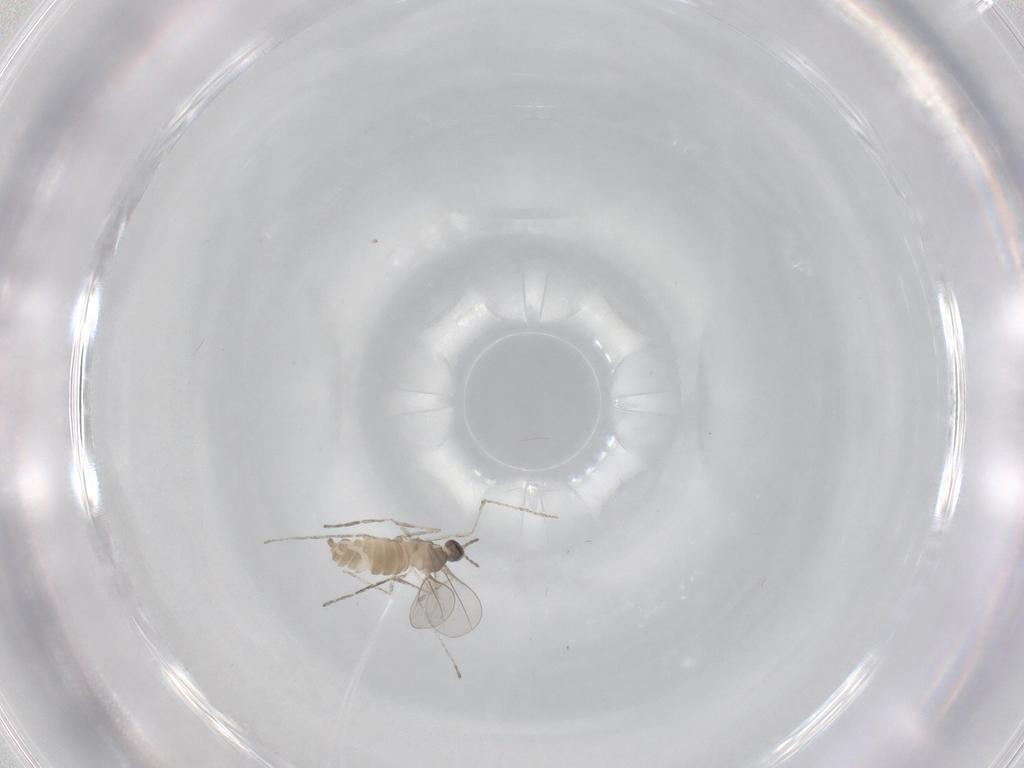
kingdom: Animalia
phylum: Arthropoda
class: Insecta
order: Diptera
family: Cecidomyiidae
